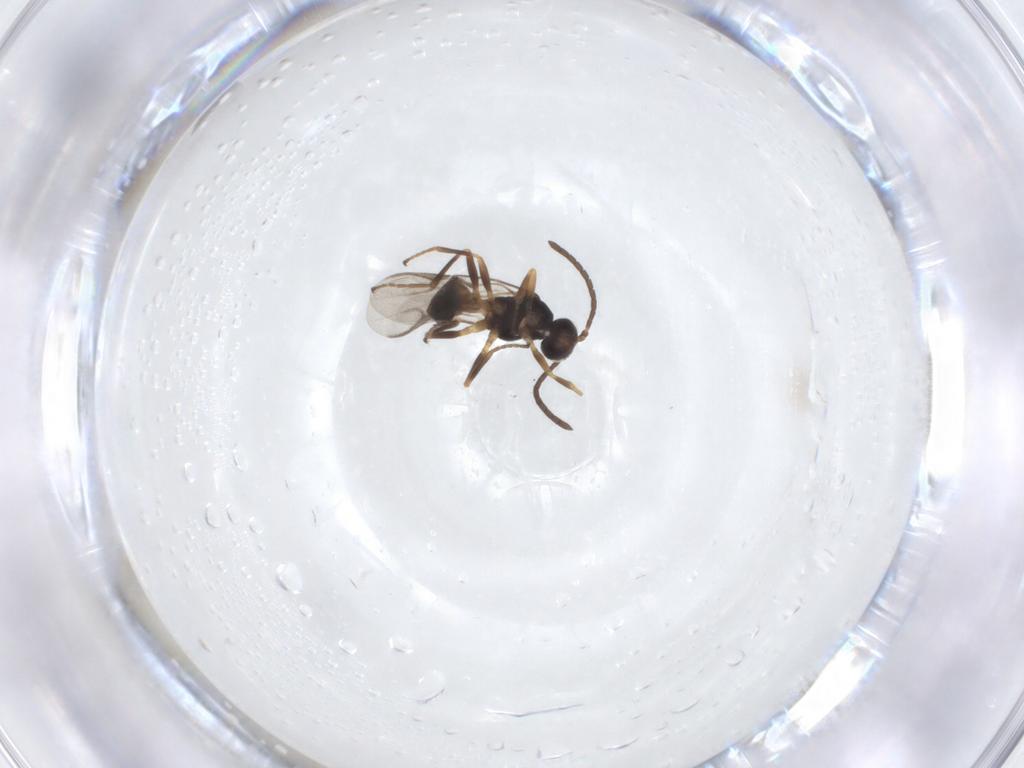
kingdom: Animalia
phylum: Arthropoda
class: Insecta
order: Hymenoptera
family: Braconidae
